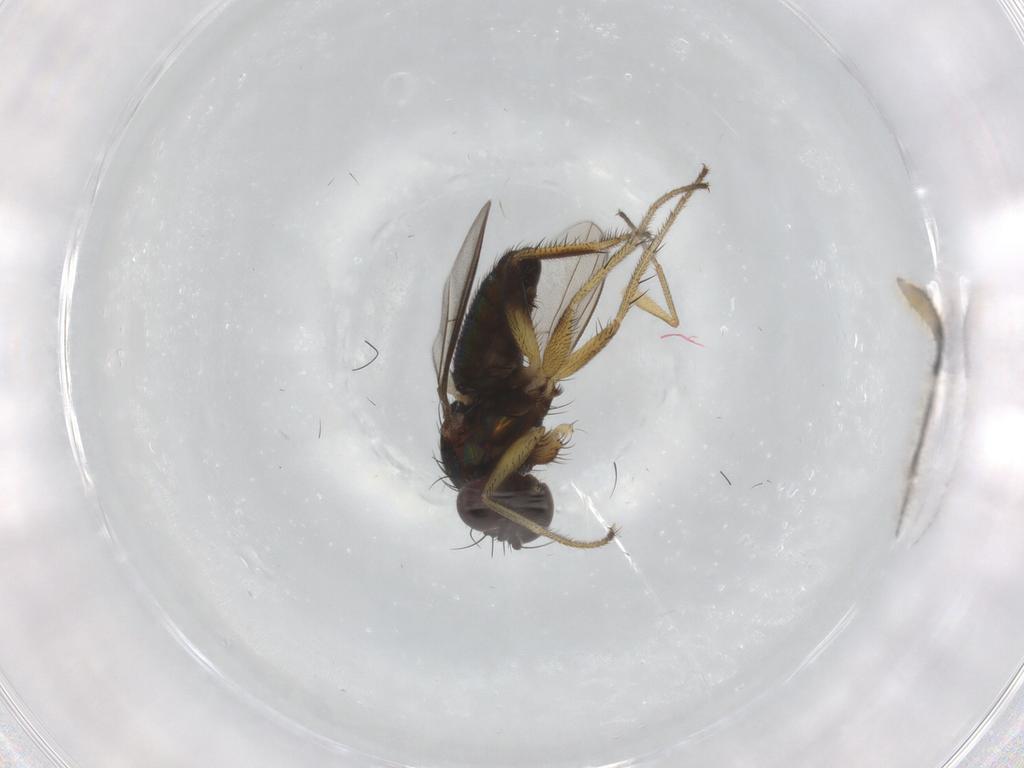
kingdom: Animalia
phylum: Arthropoda
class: Insecta
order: Diptera
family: Dolichopodidae
